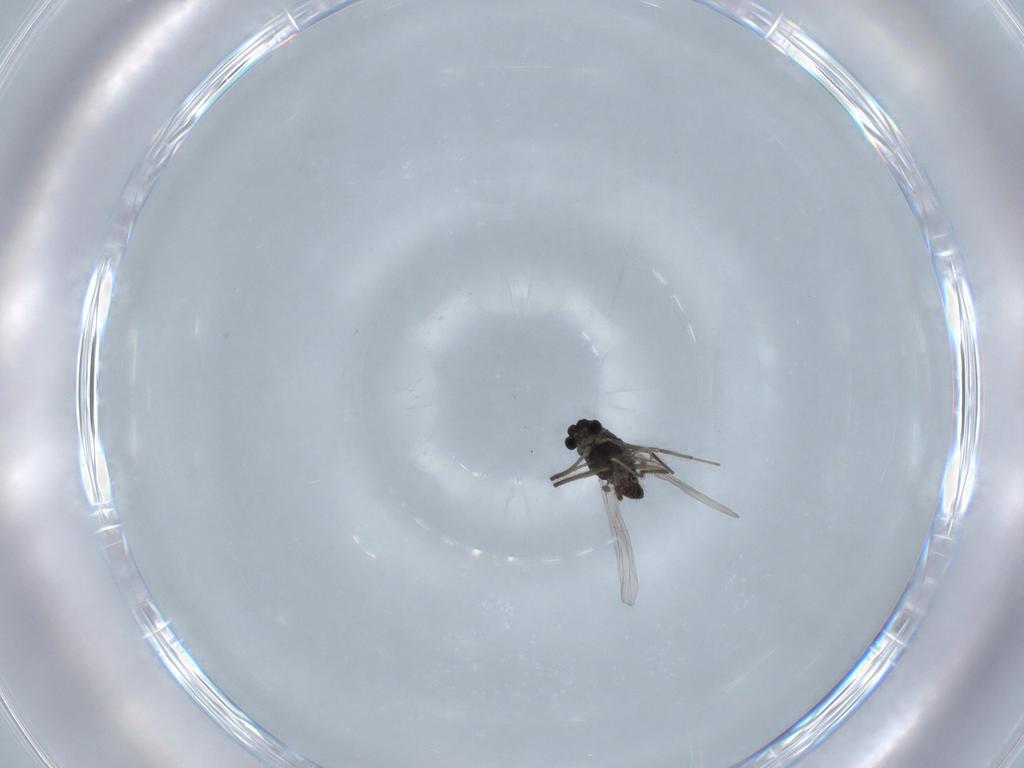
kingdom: Animalia
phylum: Arthropoda
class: Insecta
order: Diptera
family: Chironomidae
